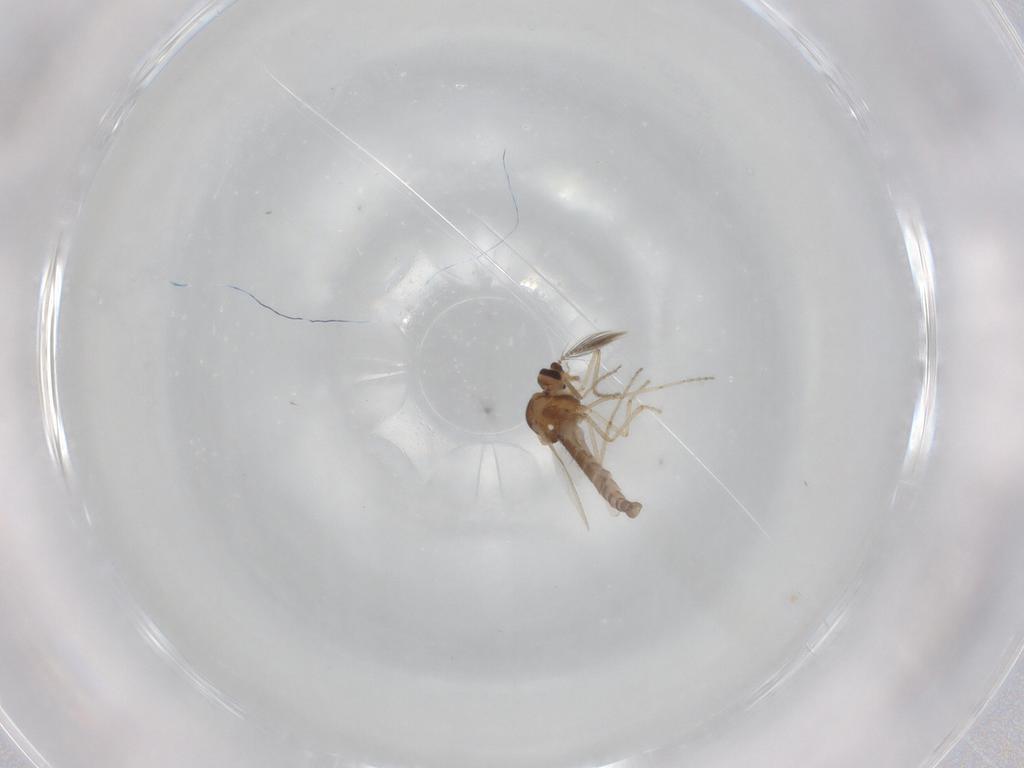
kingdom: Animalia
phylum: Arthropoda
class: Insecta
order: Diptera
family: Ceratopogonidae
